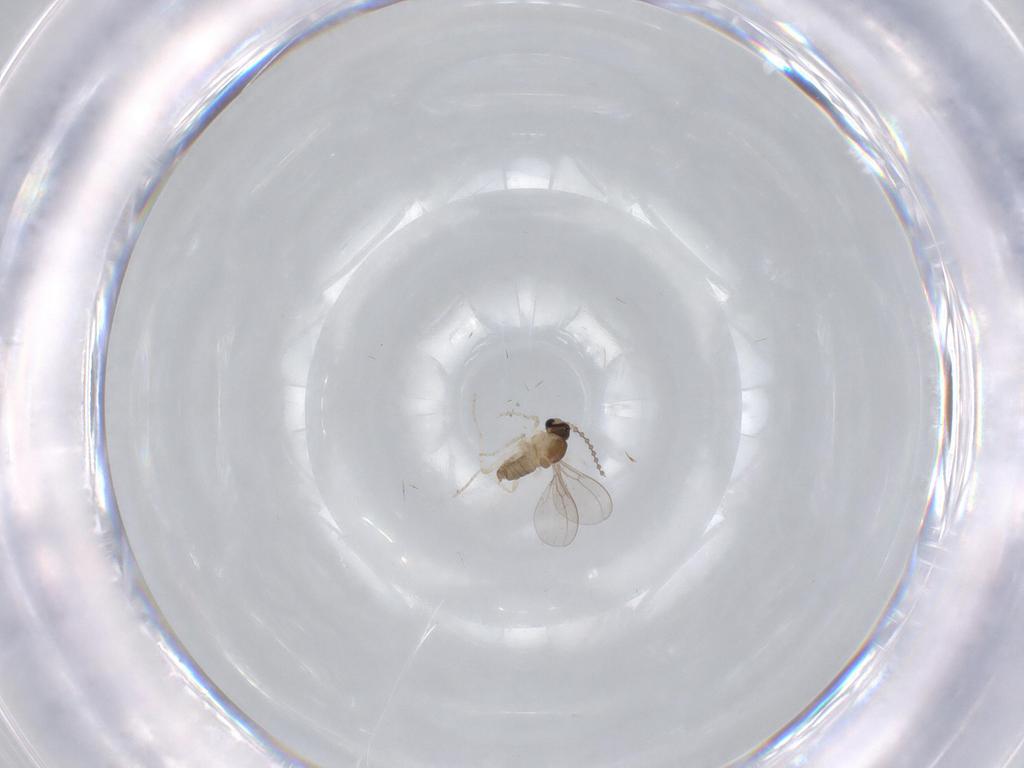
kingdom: Animalia
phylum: Arthropoda
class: Insecta
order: Diptera
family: Cecidomyiidae
